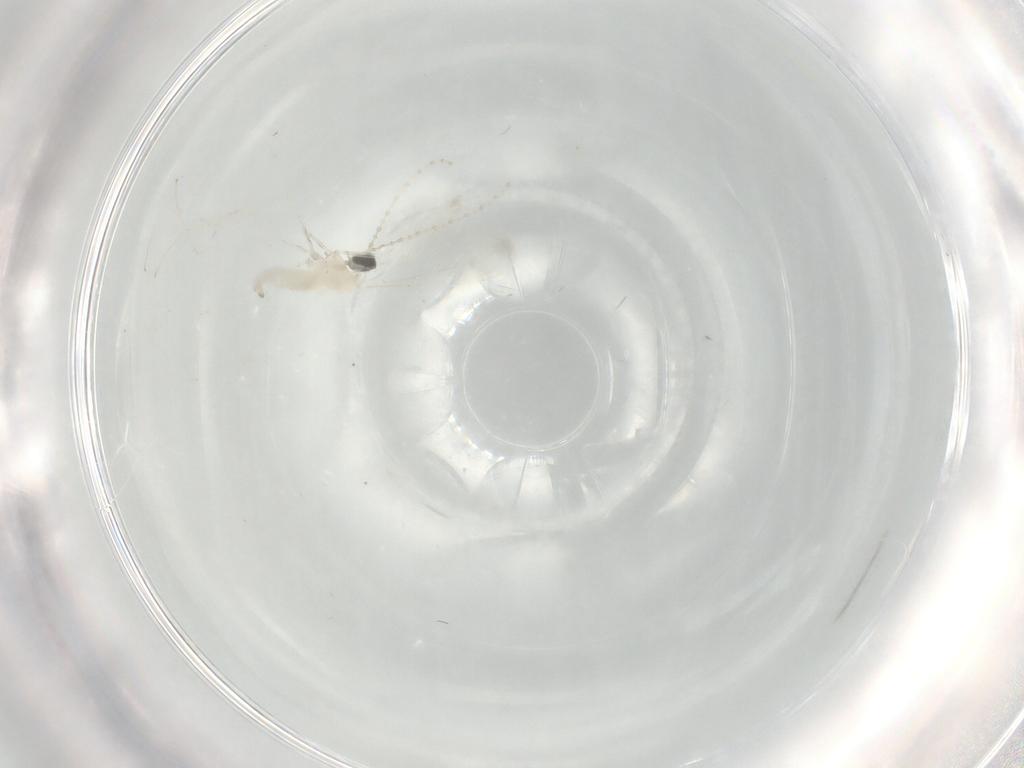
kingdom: Animalia
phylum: Arthropoda
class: Insecta
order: Diptera
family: Cecidomyiidae
